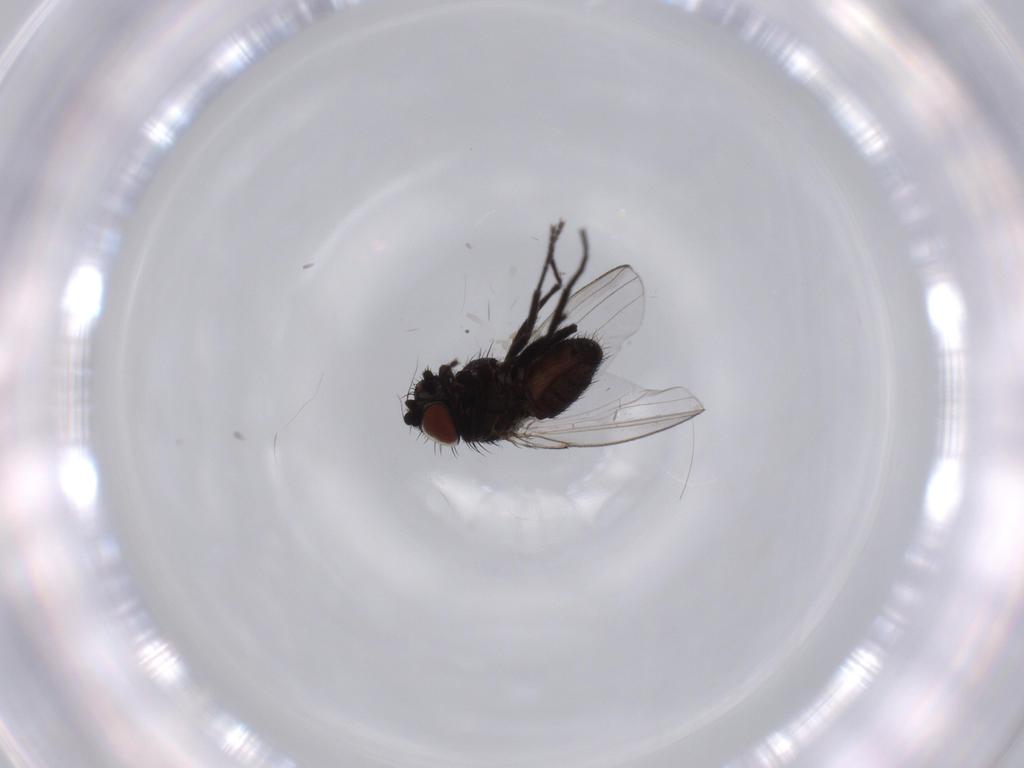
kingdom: Animalia
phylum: Arthropoda
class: Insecta
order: Diptera
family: Milichiidae
